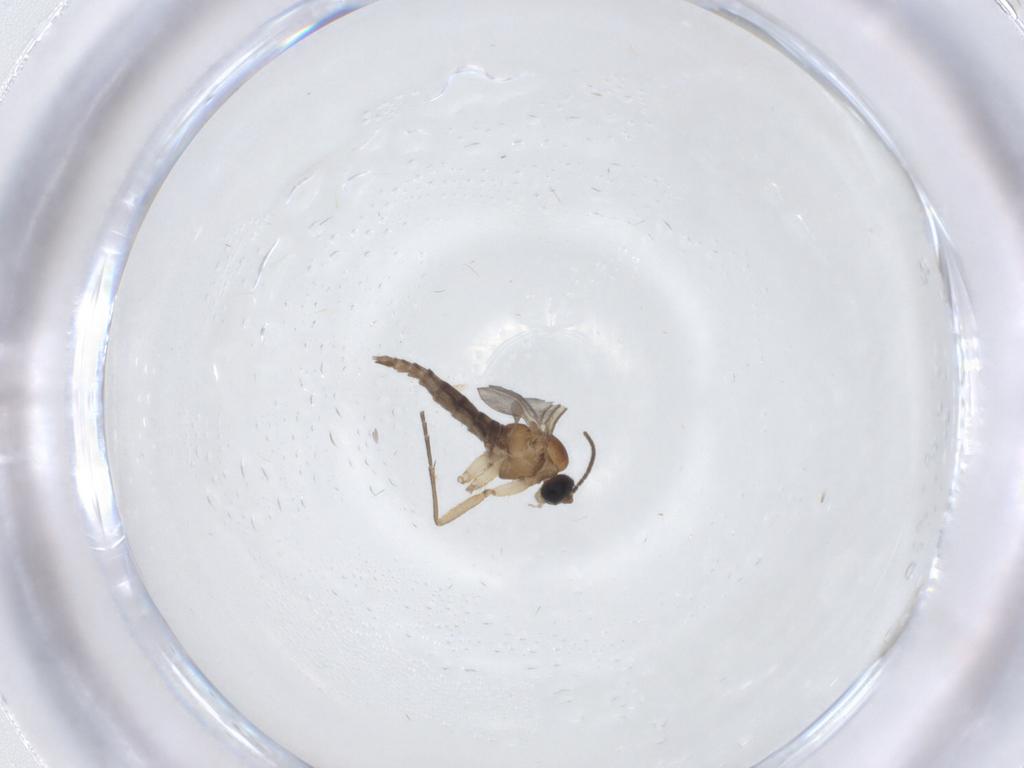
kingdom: Animalia
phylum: Arthropoda
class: Insecta
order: Diptera
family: Sciaridae
